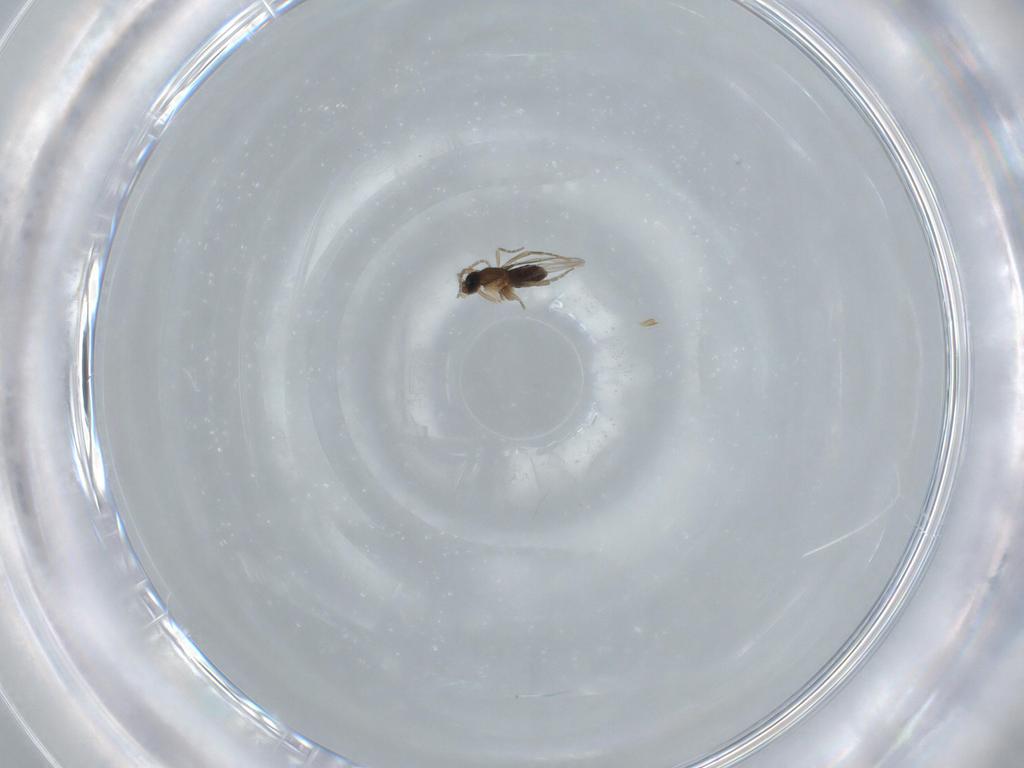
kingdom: Animalia
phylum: Arthropoda
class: Insecta
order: Diptera
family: Phoridae
